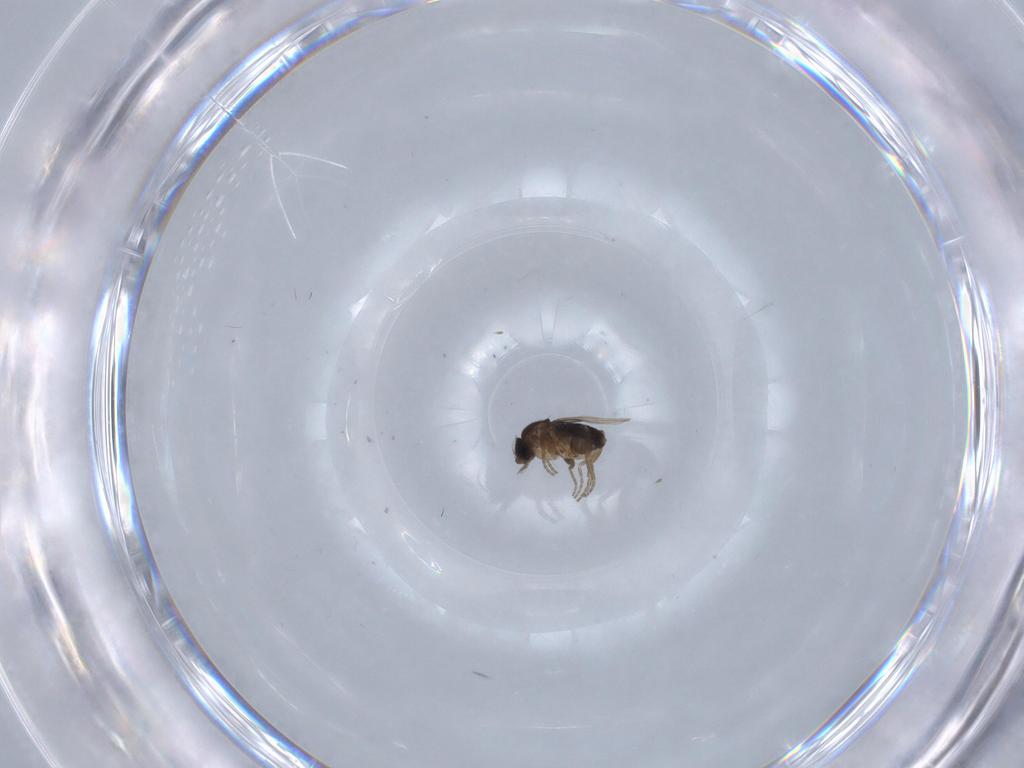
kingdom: Animalia
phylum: Arthropoda
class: Insecta
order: Diptera
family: Phoridae
